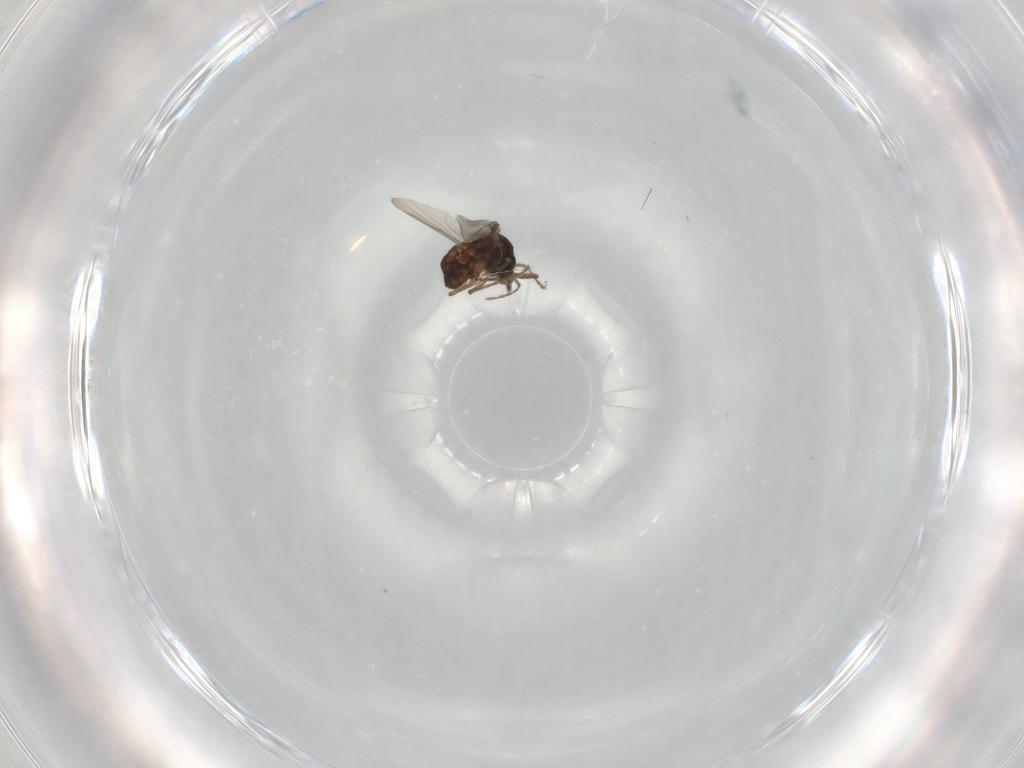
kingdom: Animalia
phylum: Arthropoda
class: Insecta
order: Diptera
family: Ceratopogonidae
